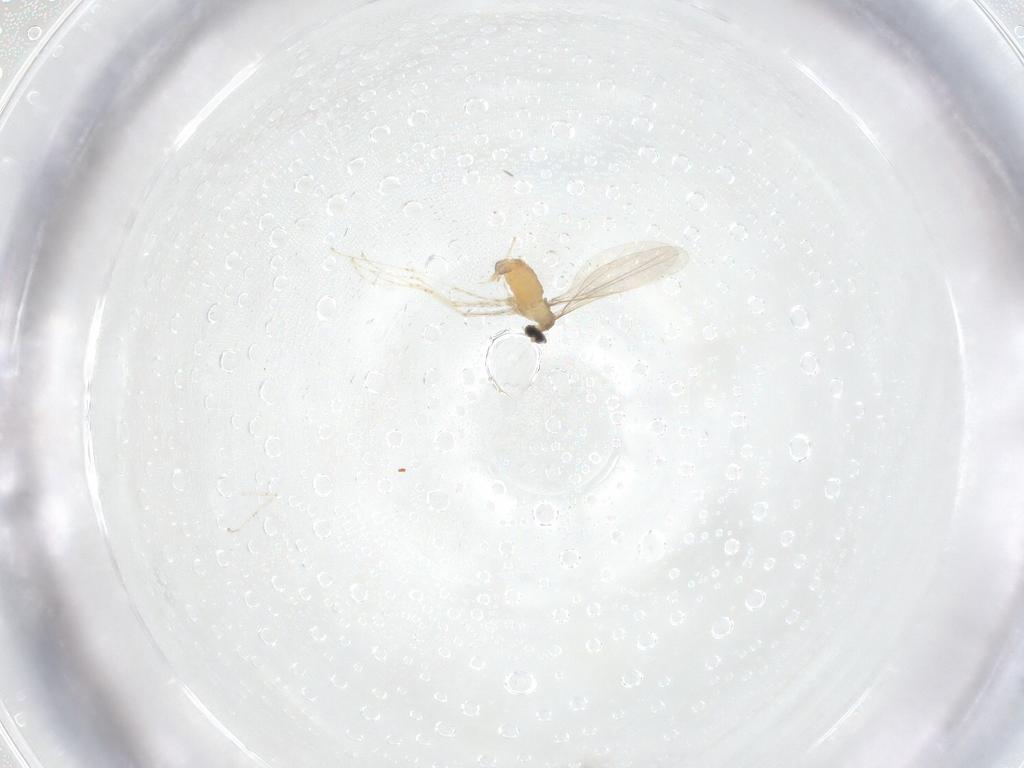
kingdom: Animalia
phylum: Arthropoda
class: Insecta
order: Diptera
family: Cecidomyiidae
